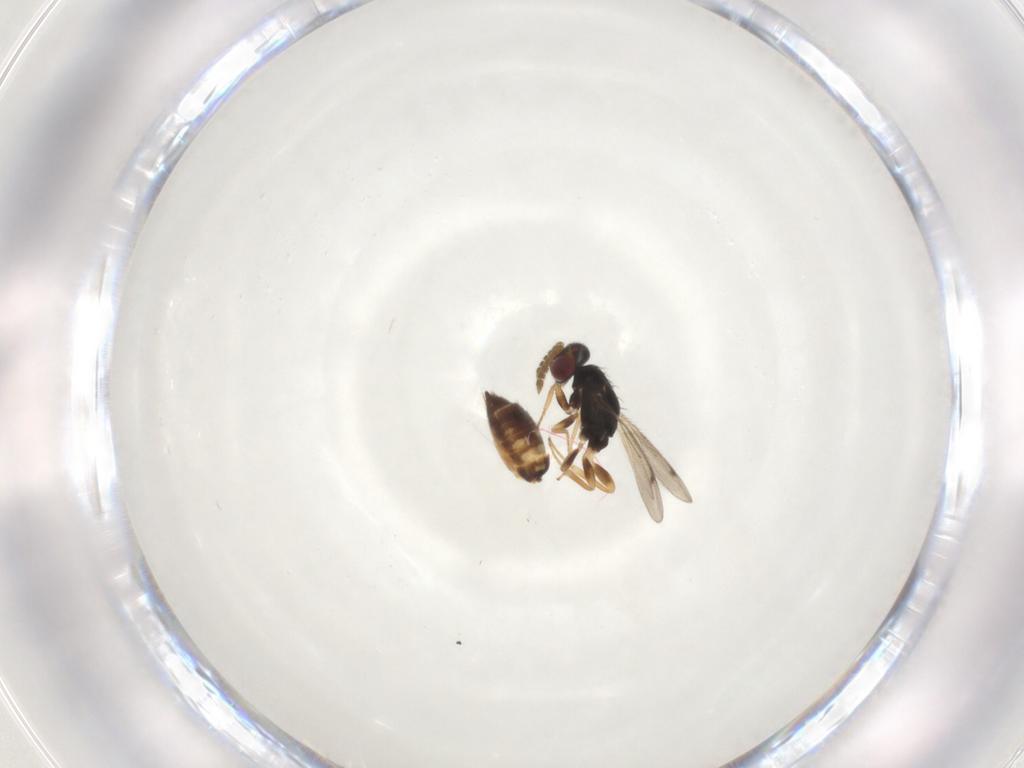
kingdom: Animalia
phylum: Arthropoda
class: Insecta
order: Hymenoptera
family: Eulophidae
